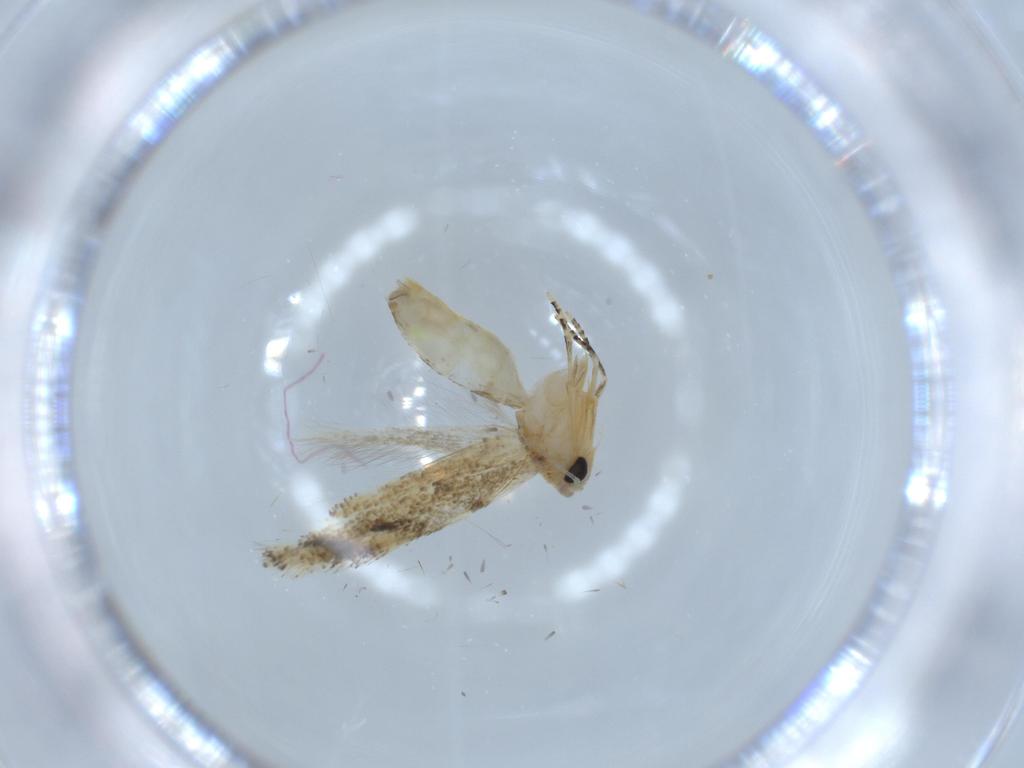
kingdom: Animalia
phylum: Arthropoda
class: Insecta
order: Lepidoptera
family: Bucculatricidae
